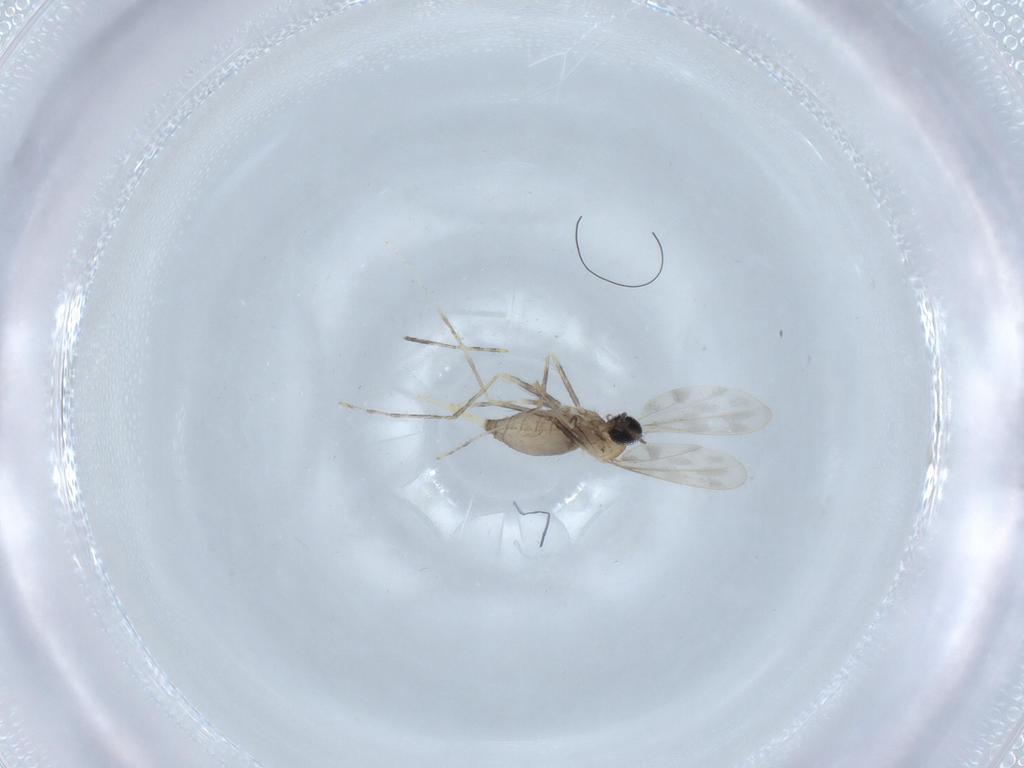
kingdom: Animalia
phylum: Arthropoda
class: Insecta
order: Diptera
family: Cecidomyiidae
